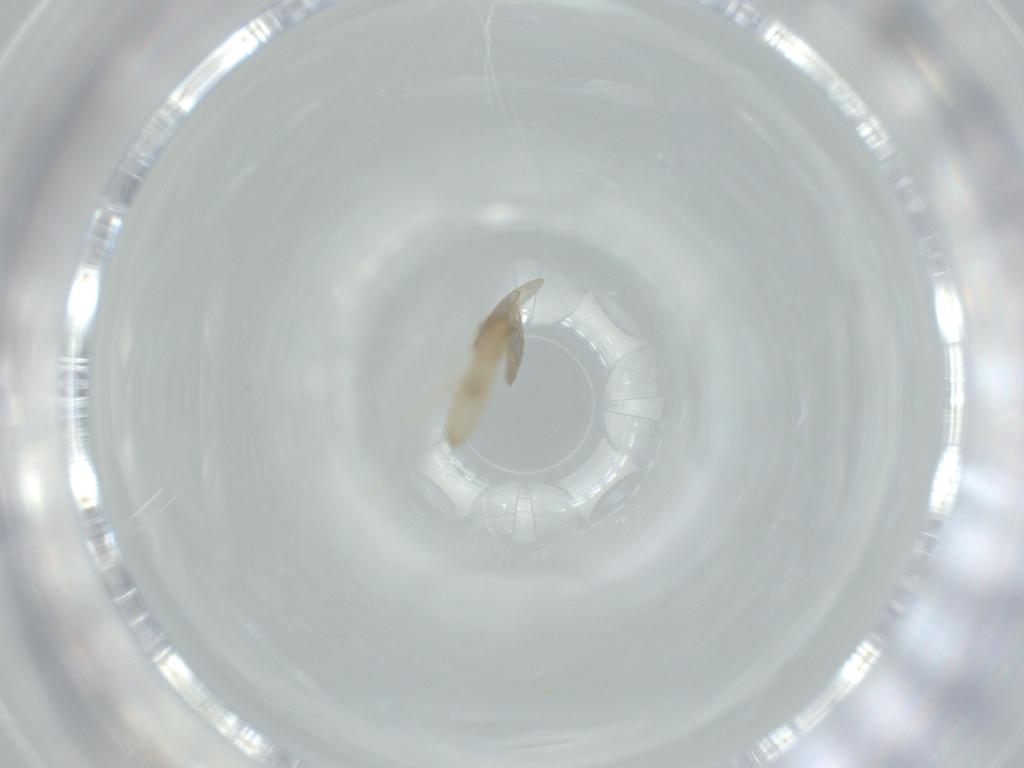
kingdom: Animalia
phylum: Arthropoda
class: Insecta
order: Diptera
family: Cecidomyiidae
